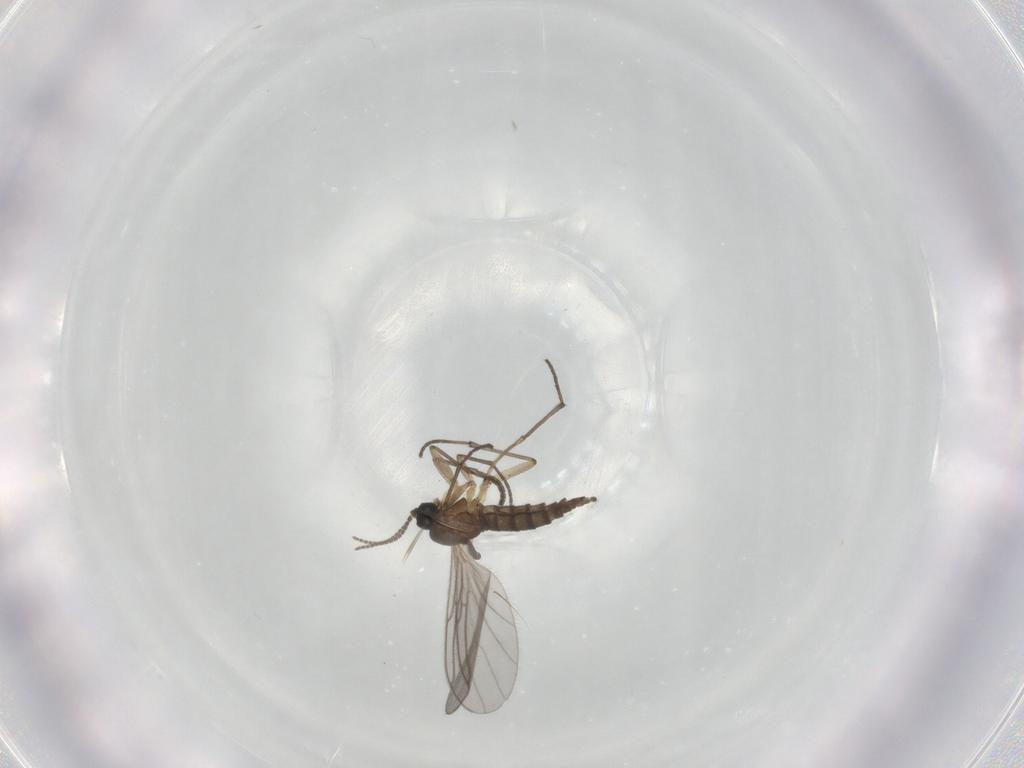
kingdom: Animalia
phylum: Arthropoda
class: Insecta
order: Diptera
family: Sciaridae
